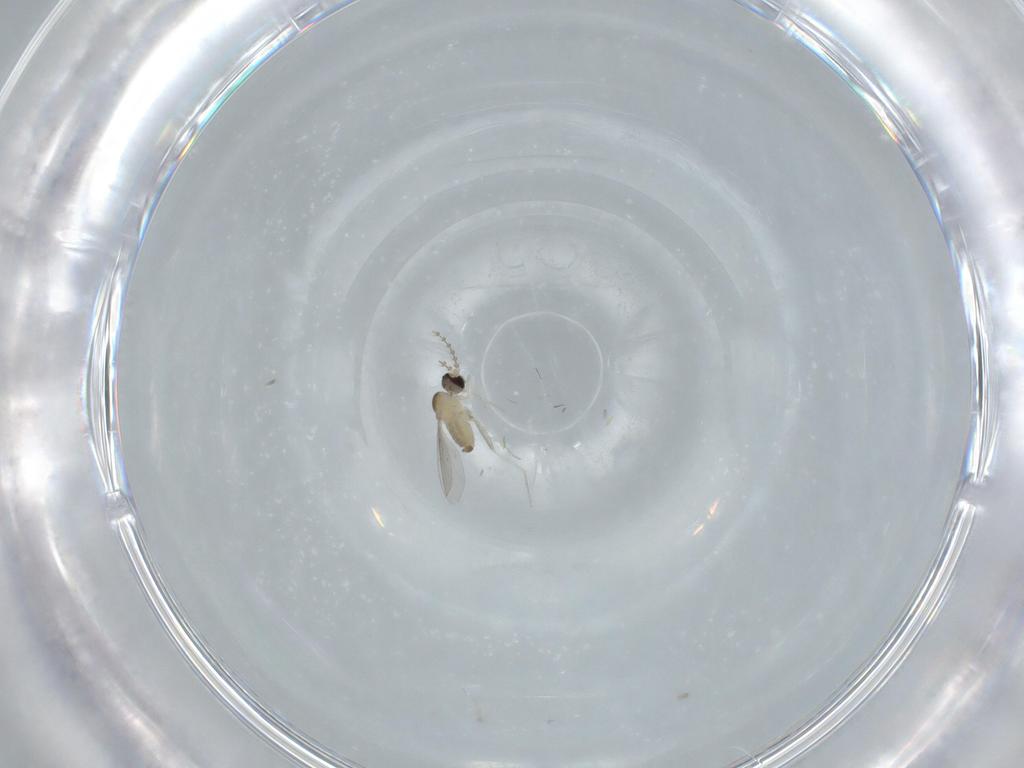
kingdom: Animalia
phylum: Arthropoda
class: Insecta
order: Diptera
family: Cecidomyiidae
